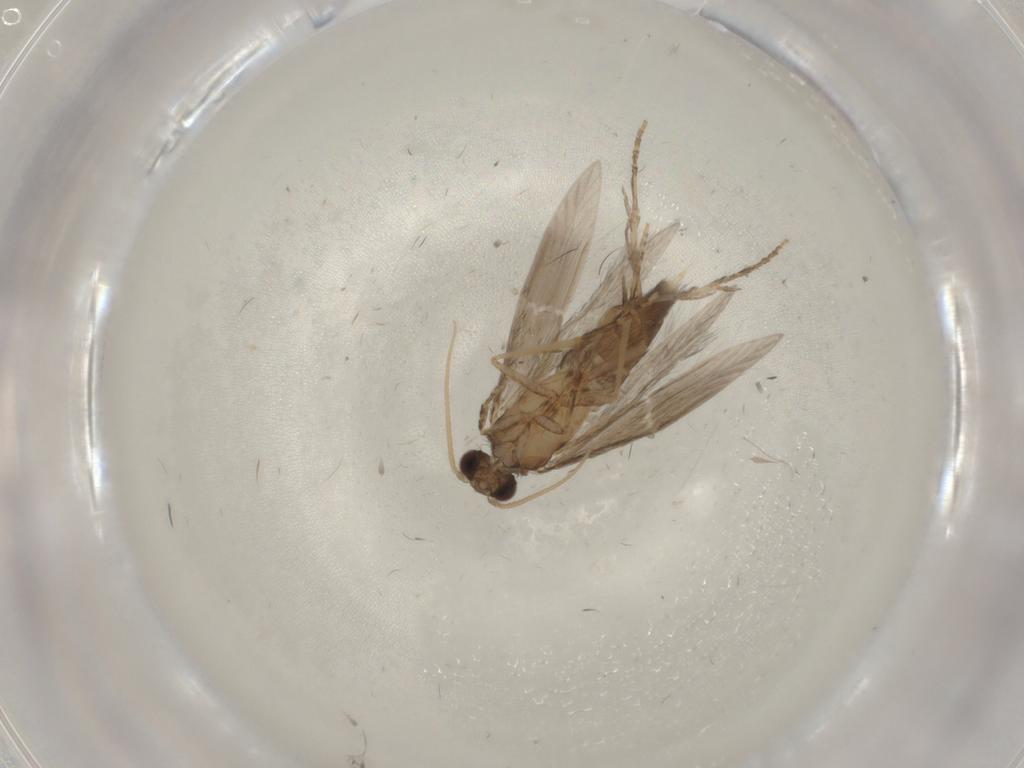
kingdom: Animalia
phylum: Arthropoda
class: Insecta
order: Trichoptera
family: Hydroptilidae
